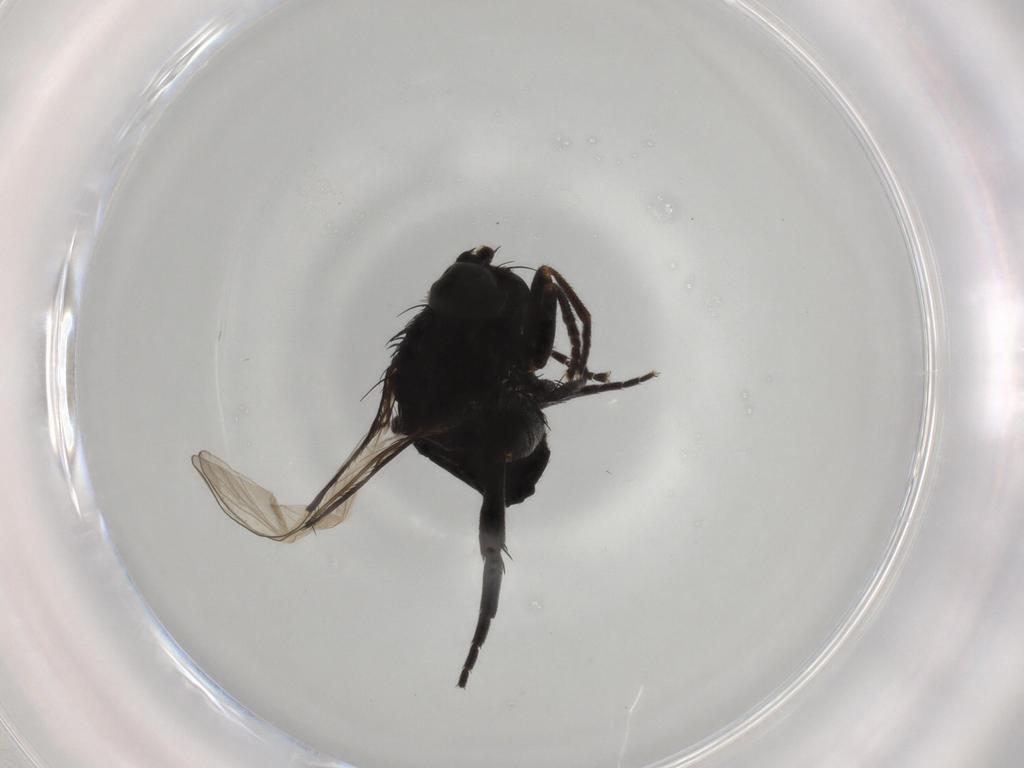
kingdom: Animalia
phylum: Arthropoda
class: Insecta
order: Diptera
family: Phoridae
